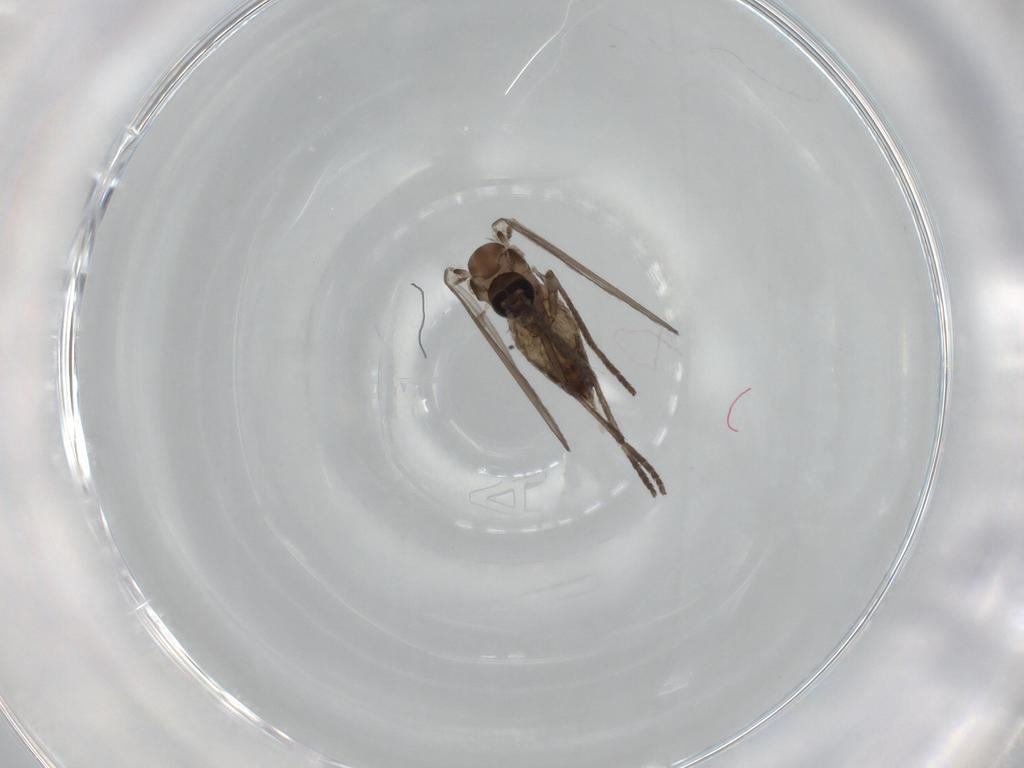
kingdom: Animalia
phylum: Arthropoda
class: Insecta
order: Diptera
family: Psychodidae
